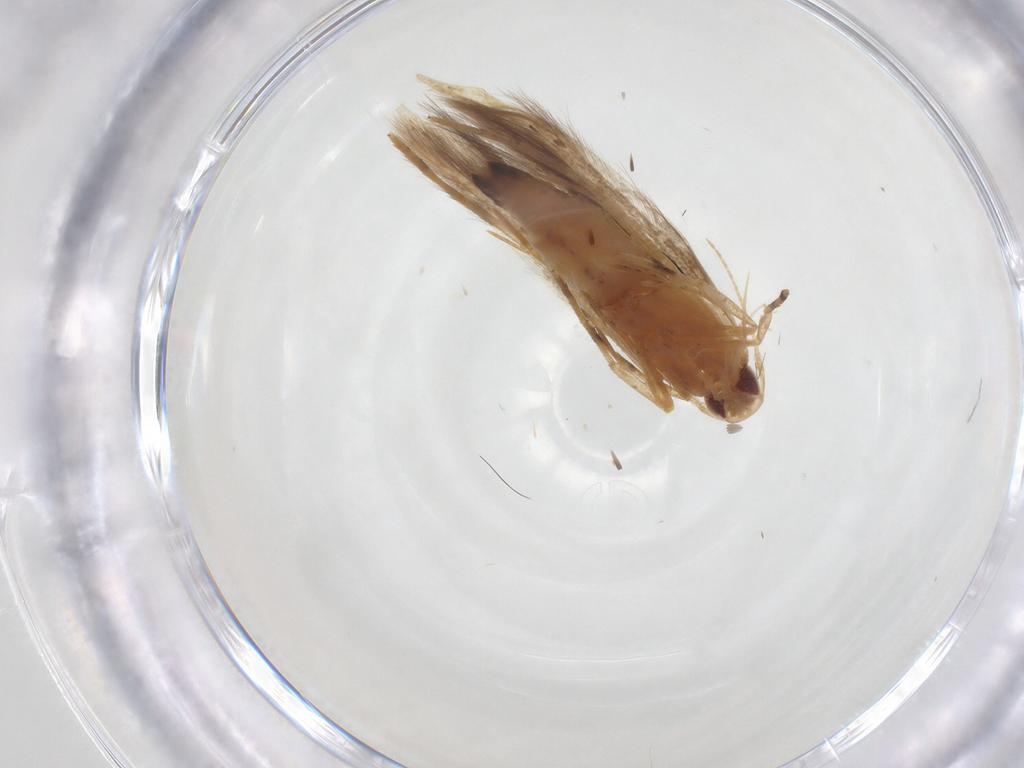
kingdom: Animalia
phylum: Arthropoda
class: Insecta
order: Lepidoptera
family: Cosmopterigidae
